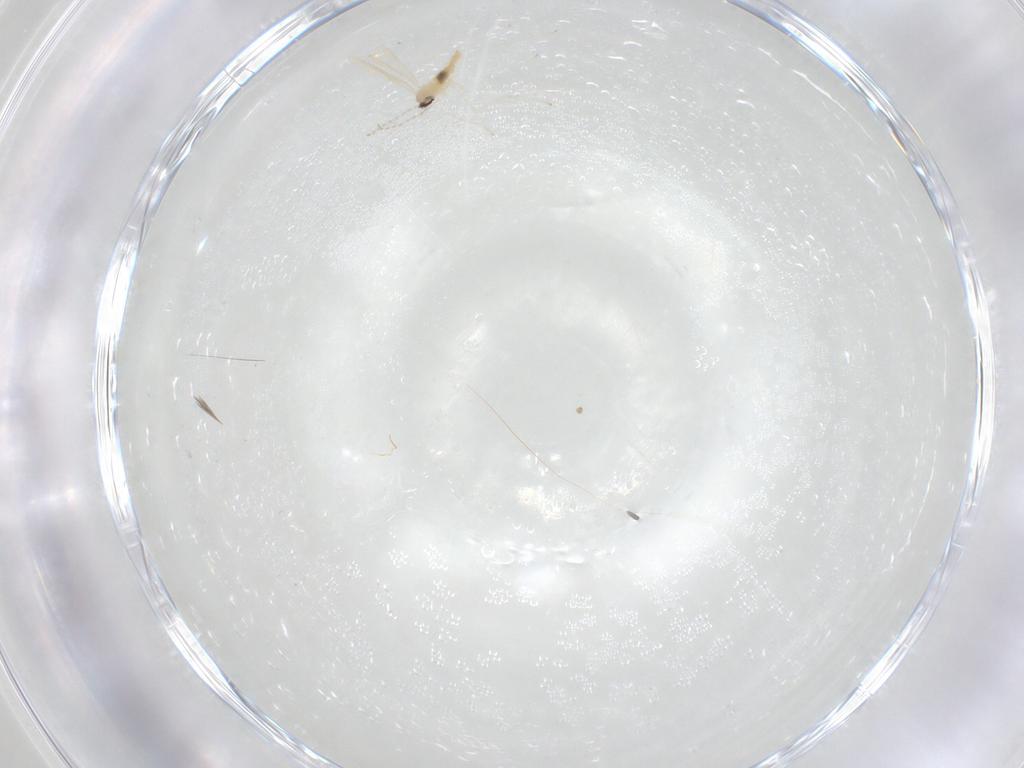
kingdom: Animalia
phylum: Arthropoda
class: Insecta
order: Diptera
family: Cecidomyiidae
